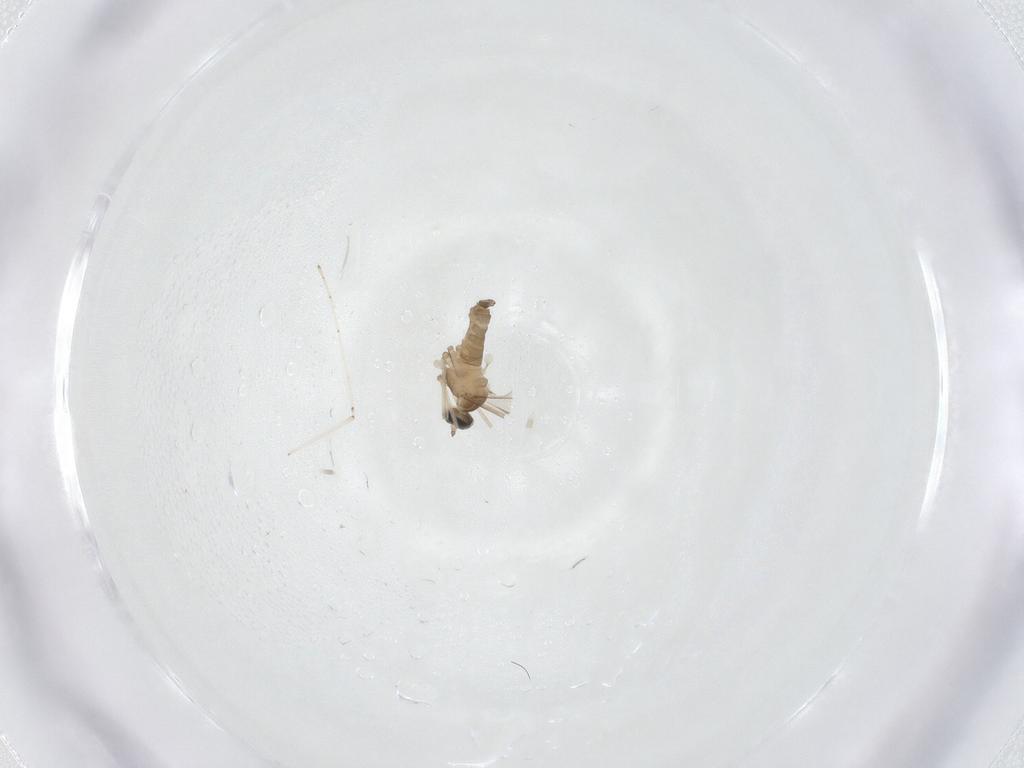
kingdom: Animalia
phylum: Arthropoda
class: Insecta
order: Diptera
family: Cecidomyiidae
